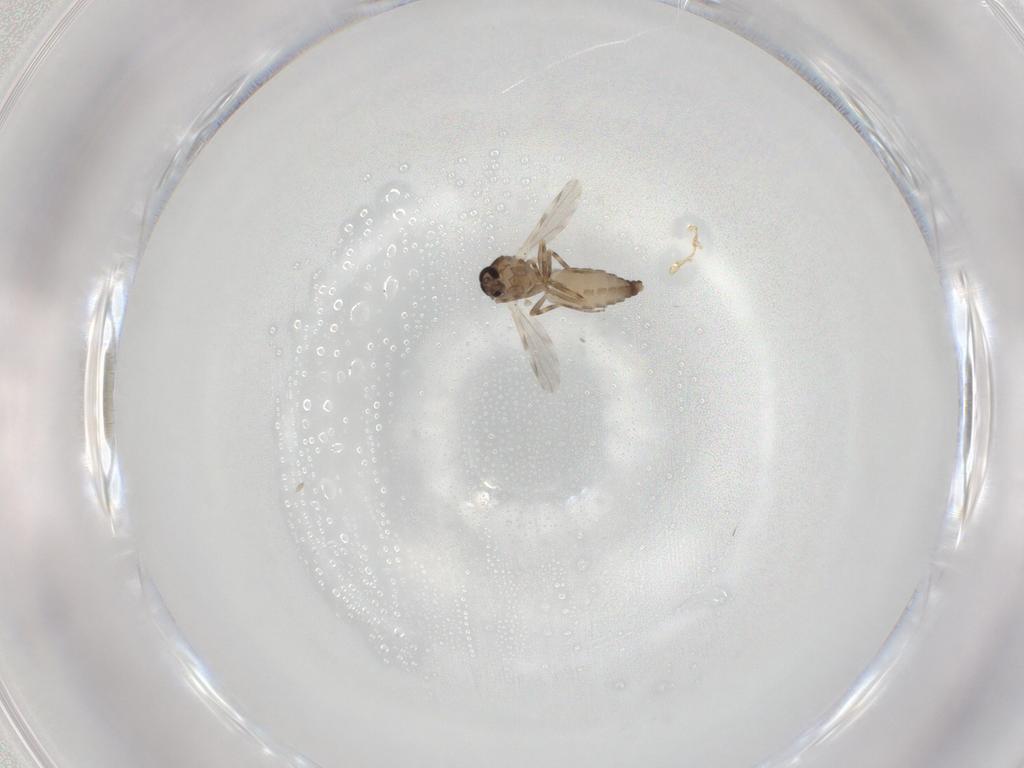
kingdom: Animalia
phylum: Arthropoda
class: Insecta
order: Diptera
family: Ceratopogonidae
